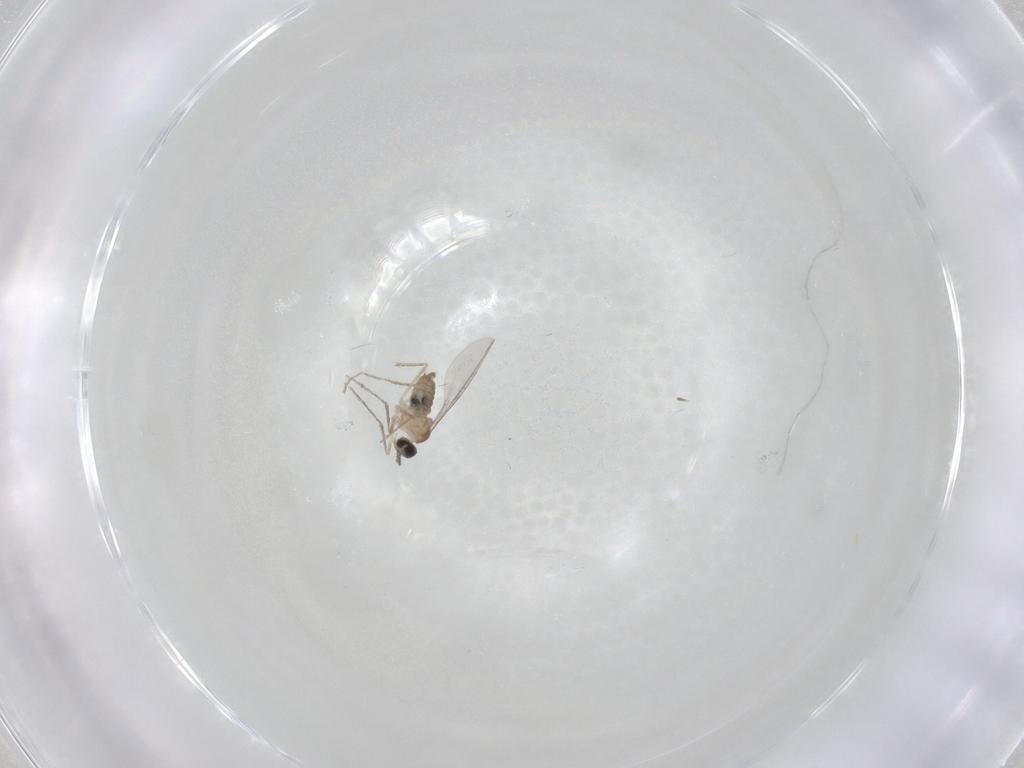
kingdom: Animalia
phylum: Arthropoda
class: Insecta
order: Diptera
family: Cecidomyiidae
